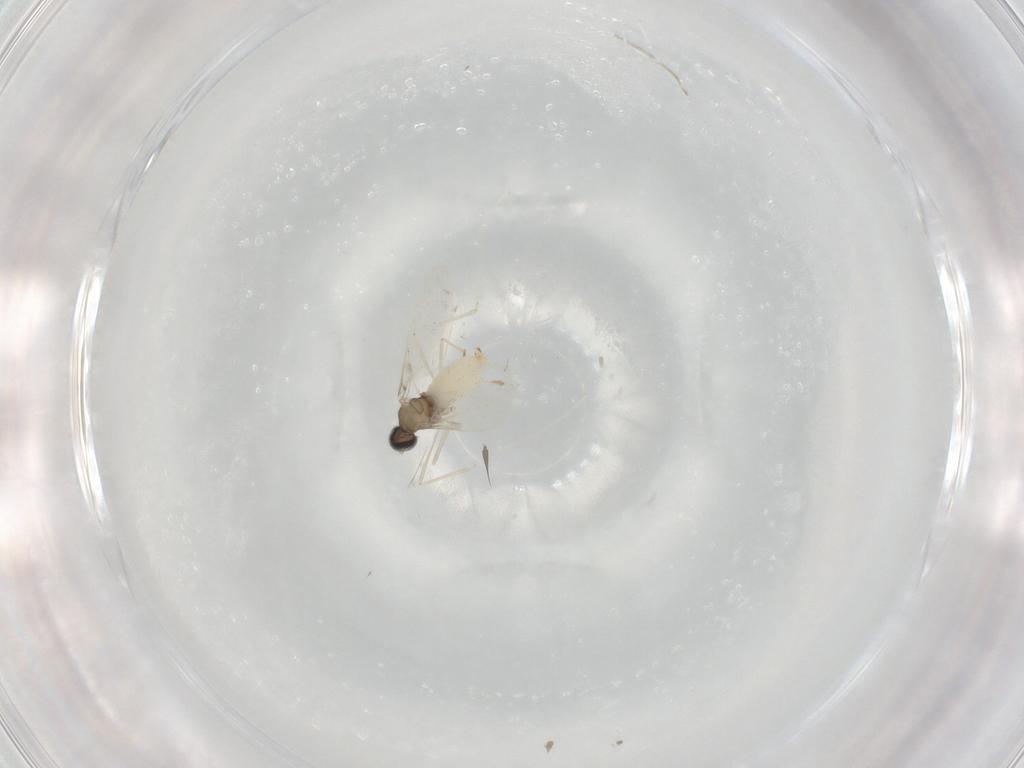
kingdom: Animalia
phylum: Arthropoda
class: Insecta
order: Diptera
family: Cecidomyiidae
